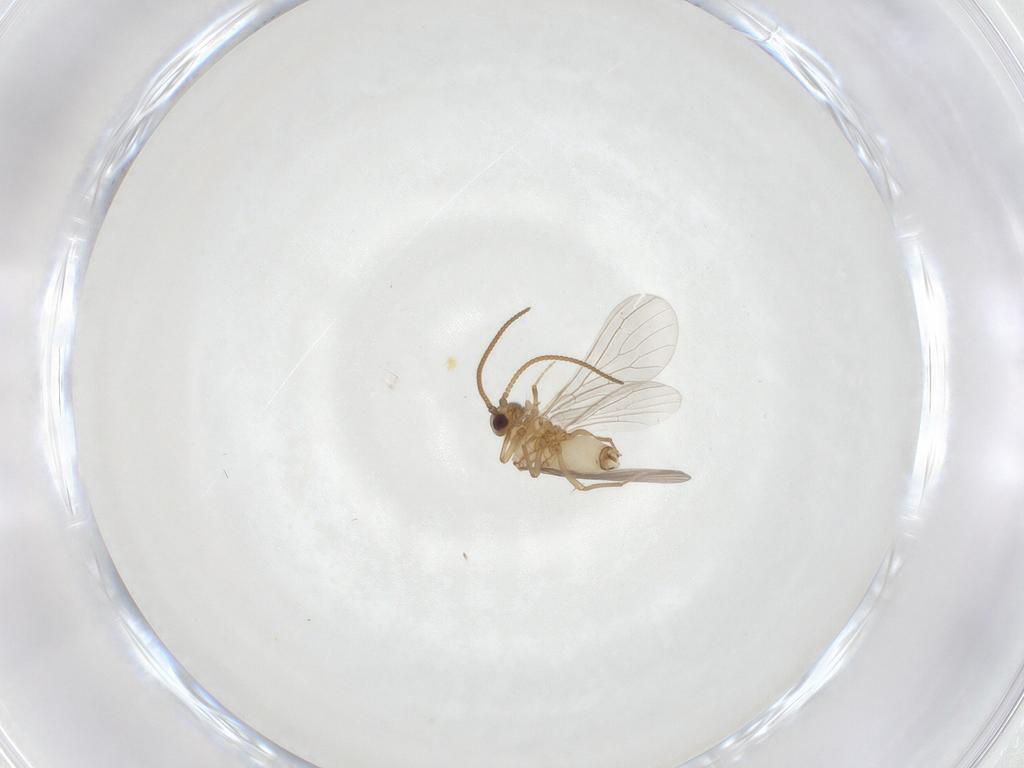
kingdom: Animalia
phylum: Arthropoda
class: Insecta
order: Neuroptera
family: Coniopterygidae
